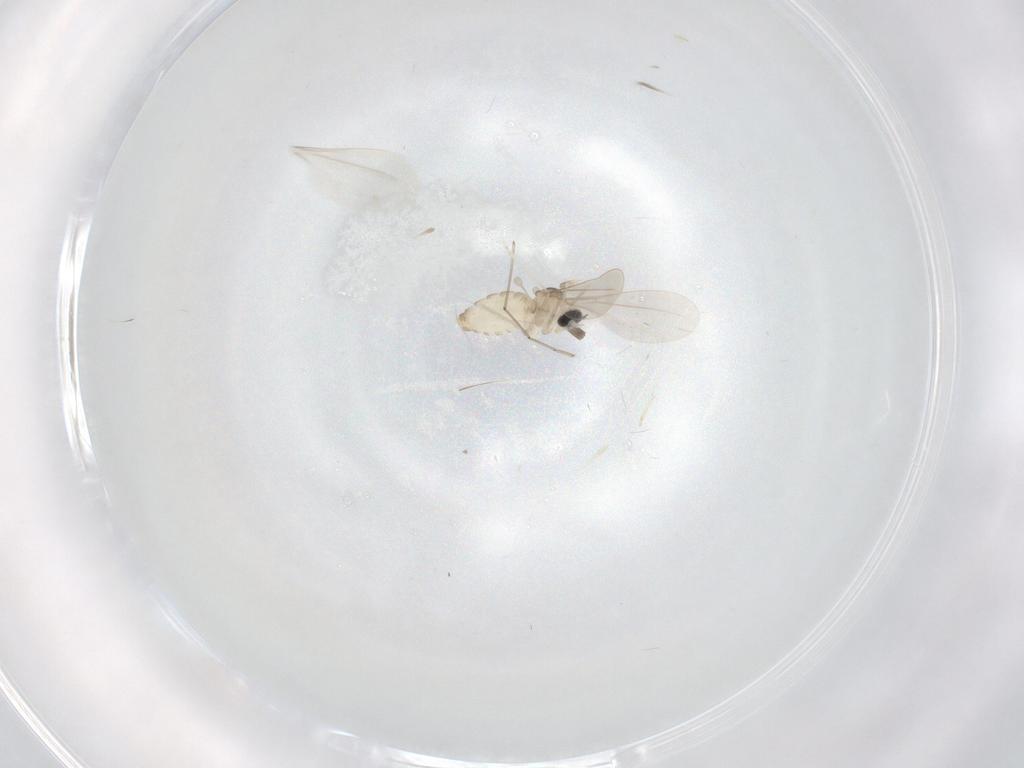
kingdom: Animalia
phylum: Arthropoda
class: Insecta
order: Diptera
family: Cecidomyiidae
